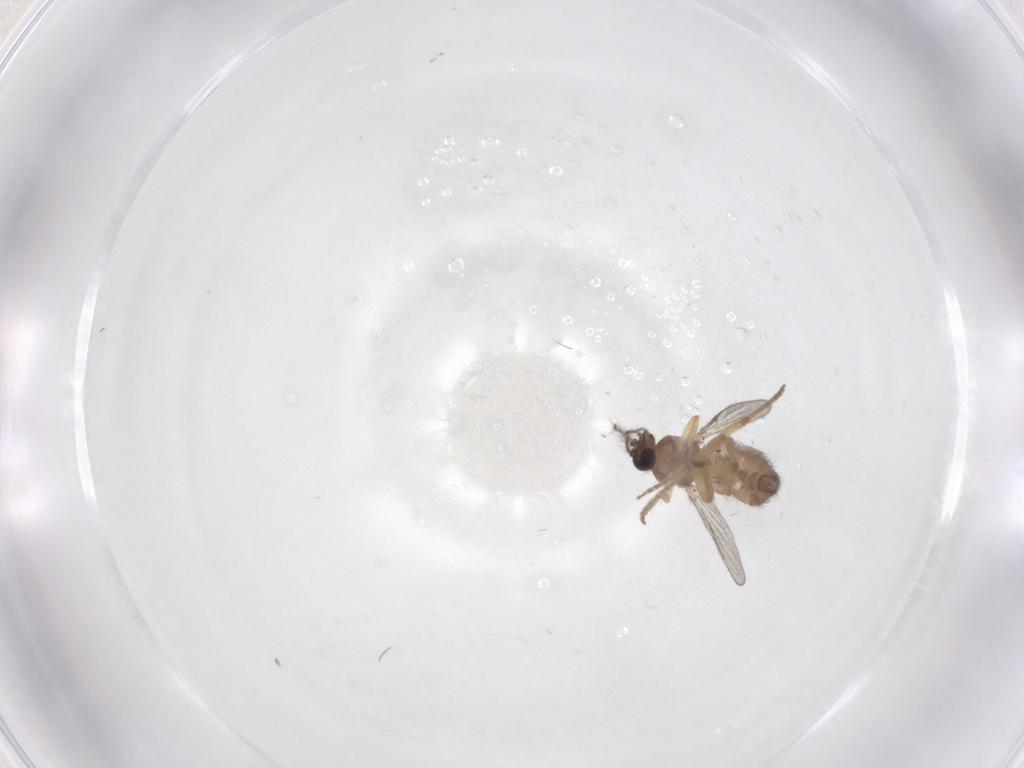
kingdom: Animalia
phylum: Arthropoda
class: Insecta
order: Diptera
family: Ceratopogonidae
